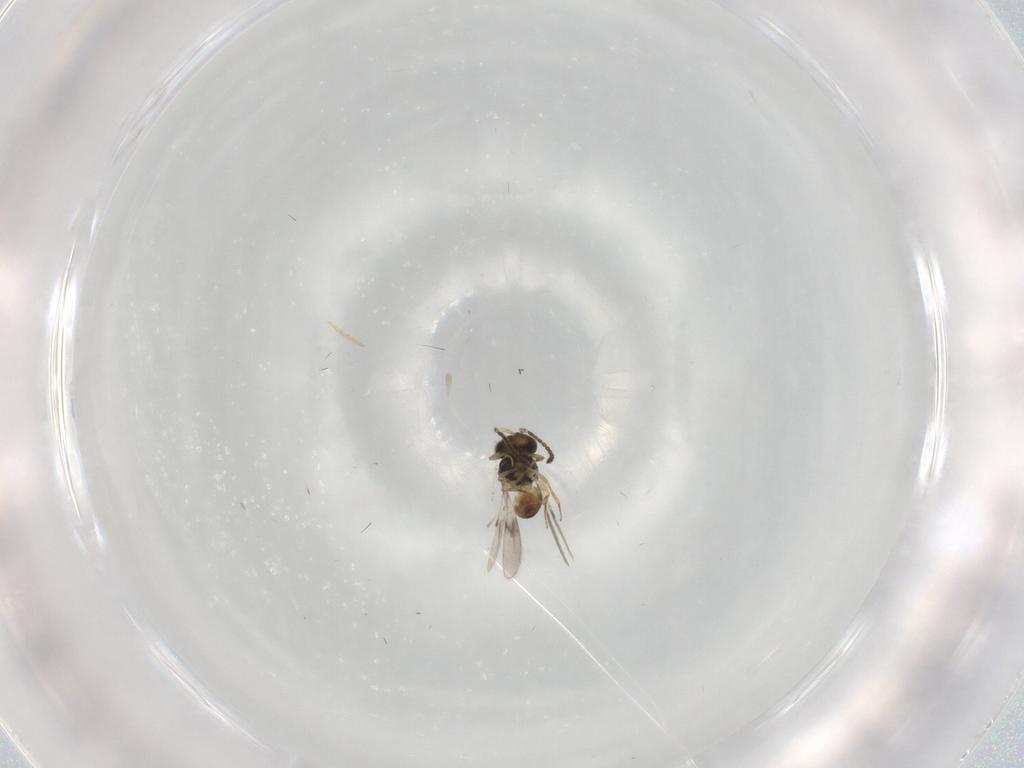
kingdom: Animalia
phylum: Arthropoda
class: Insecta
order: Hymenoptera
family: Scelionidae
